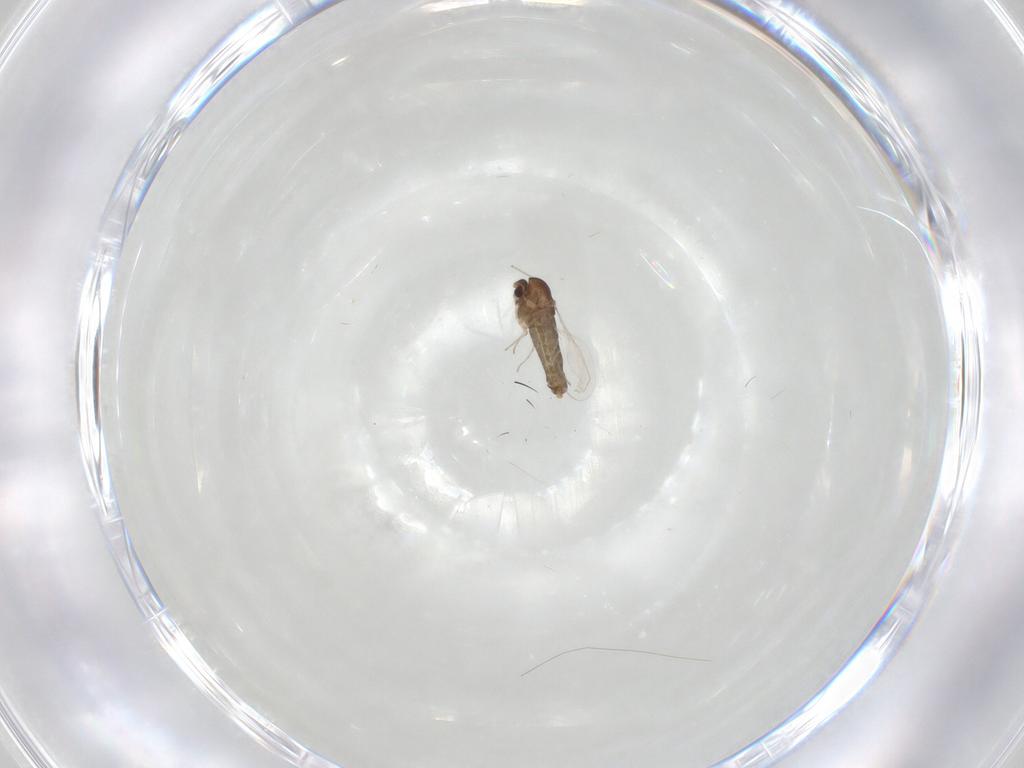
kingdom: Animalia
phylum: Arthropoda
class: Insecta
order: Diptera
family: Chironomidae
